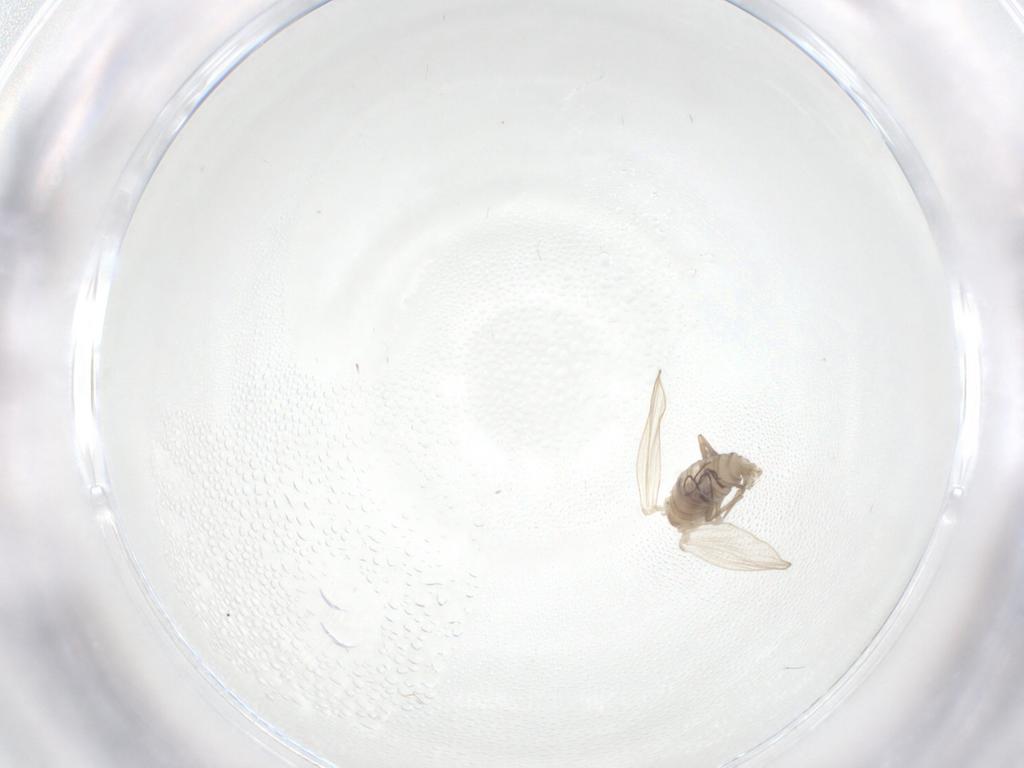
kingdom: Animalia
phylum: Arthropoda
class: Insecta
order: Diptera
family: Psychodidae
